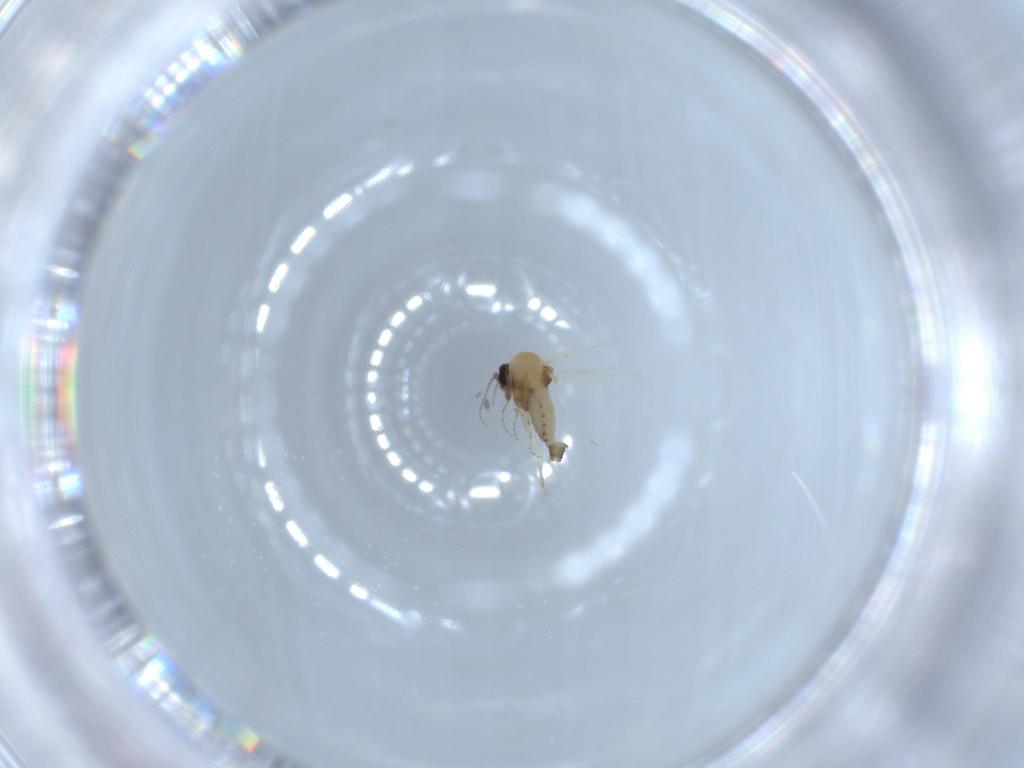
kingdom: Animalia
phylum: Arthropoda
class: Insecta
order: Diptera
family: Ceratopogonidae
